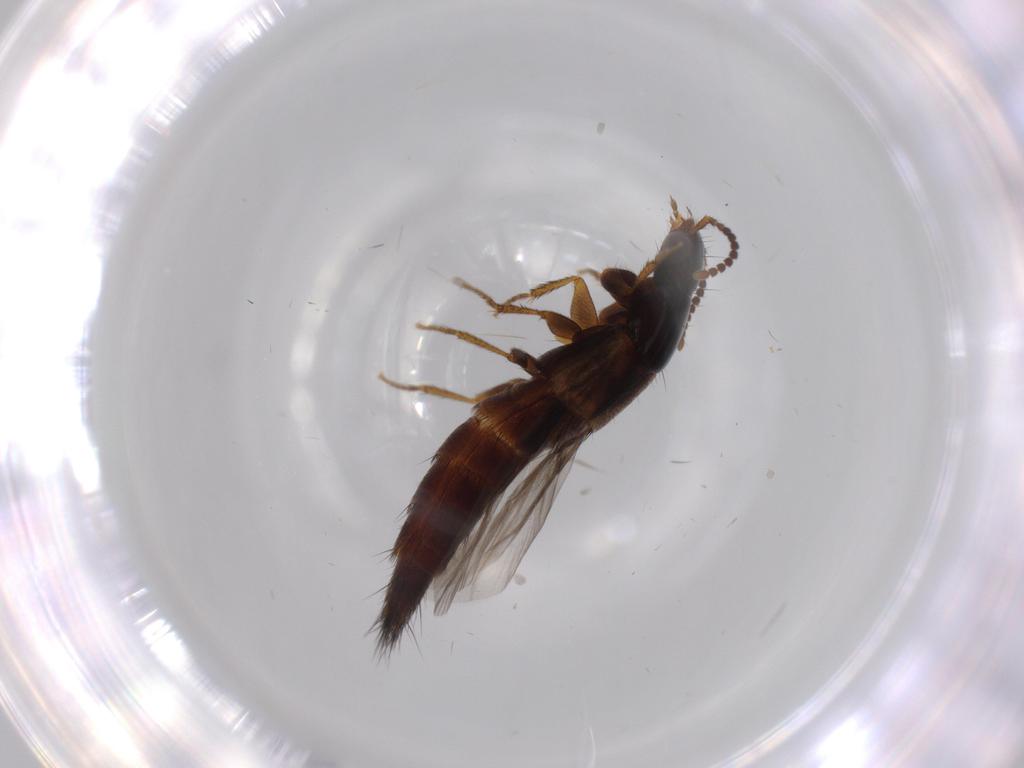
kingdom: Animalia
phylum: Arthropoda
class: Insecta
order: Coleoptera
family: Staphylinidae
